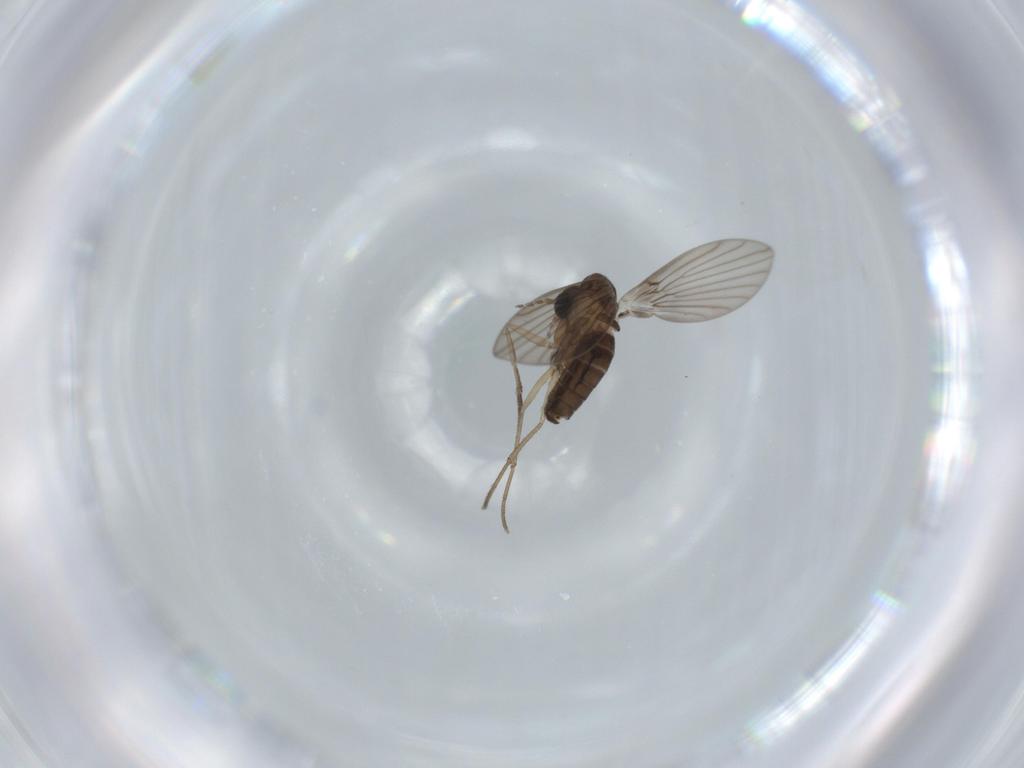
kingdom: Animalia
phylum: Arthropoda
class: Insecta
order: Diptera
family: Psychodidae
